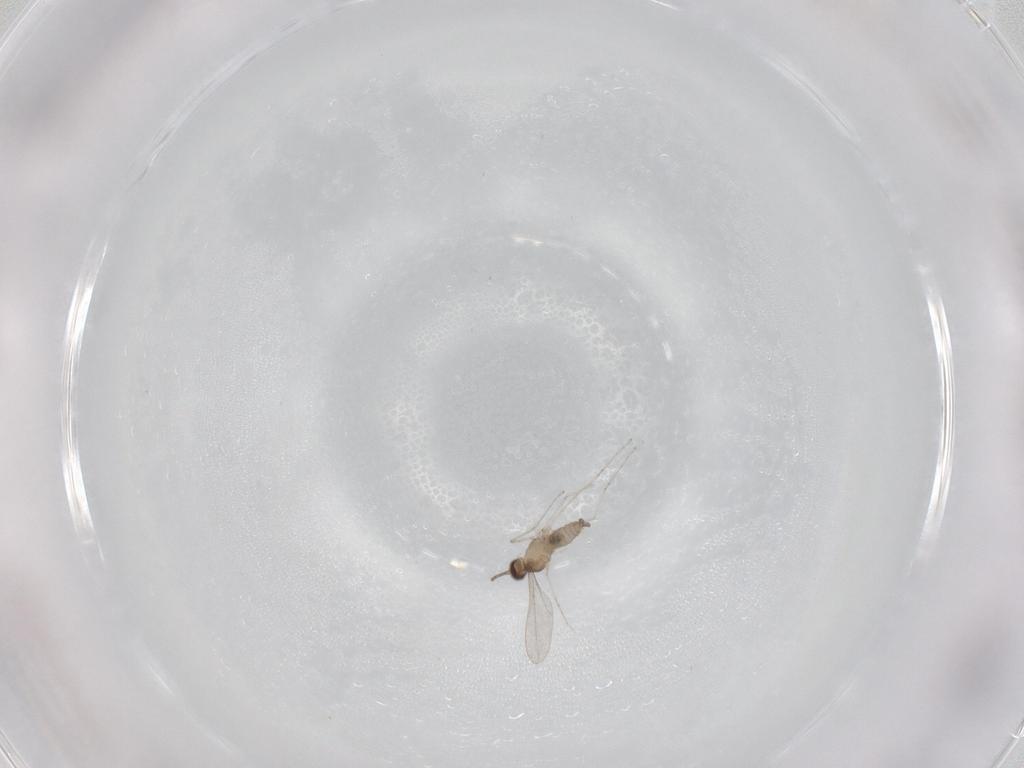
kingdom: Animalia
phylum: Arthropoda
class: Insecta
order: Diptera
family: Cecidomyiidae
